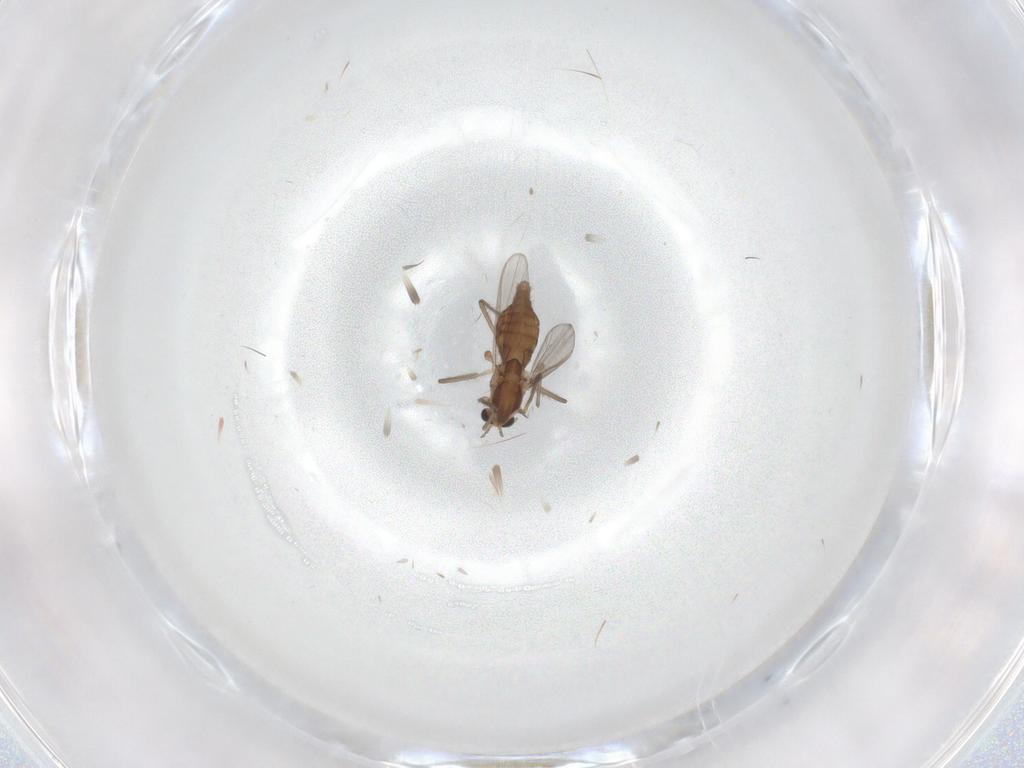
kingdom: Animalia
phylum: Arthropoda
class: Insecta
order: Diptera
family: Chironomidae
